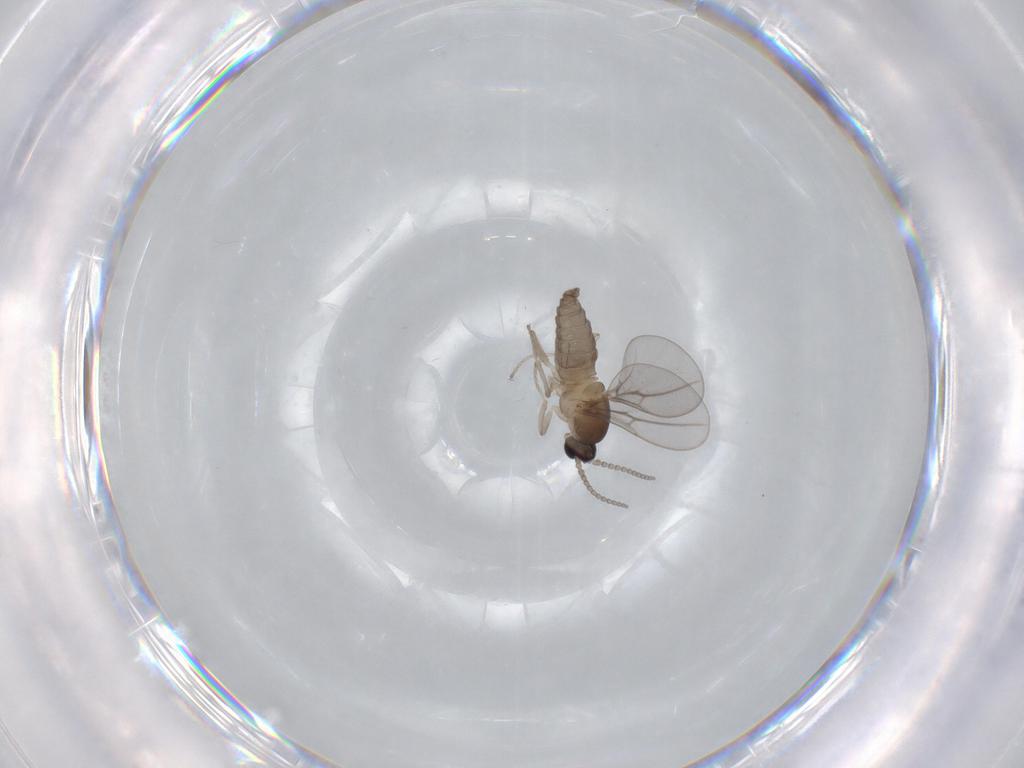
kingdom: Animalia
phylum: Arthropoda
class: Insecta
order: Diptera
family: Cecidomyiidae
